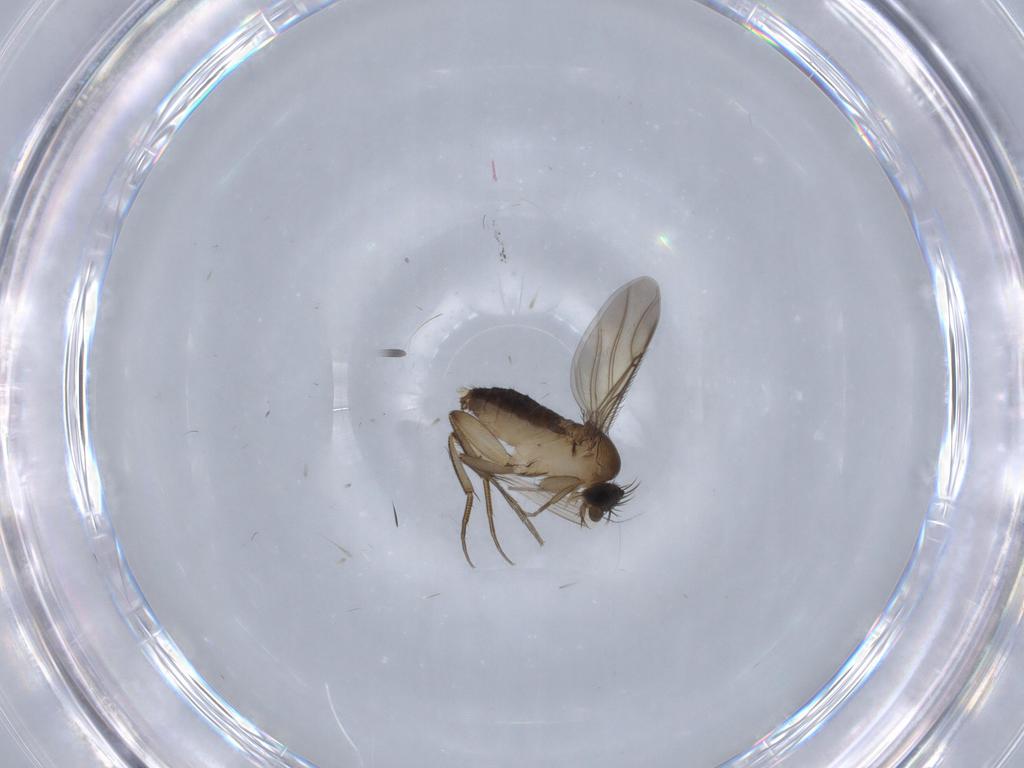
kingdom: Animalia
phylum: Arthropoda
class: Insecta
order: Diptera
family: Phoridae
